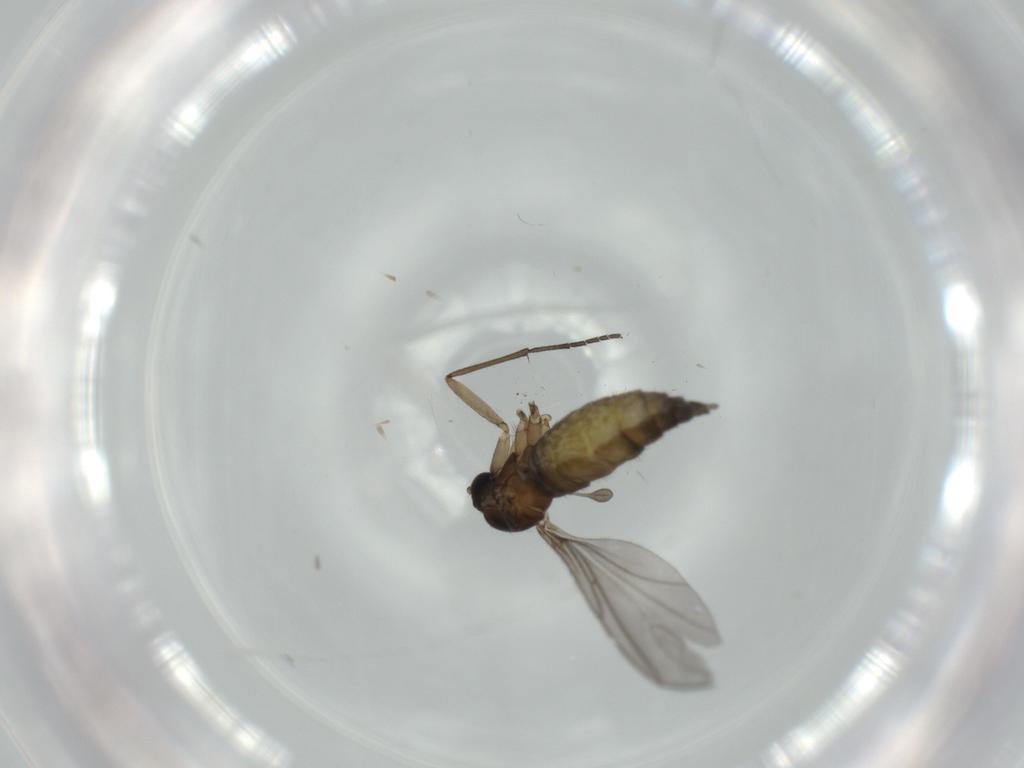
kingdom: Animalia
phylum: Arthropoda
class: Insecta
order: Diptera
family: Sciaridae
